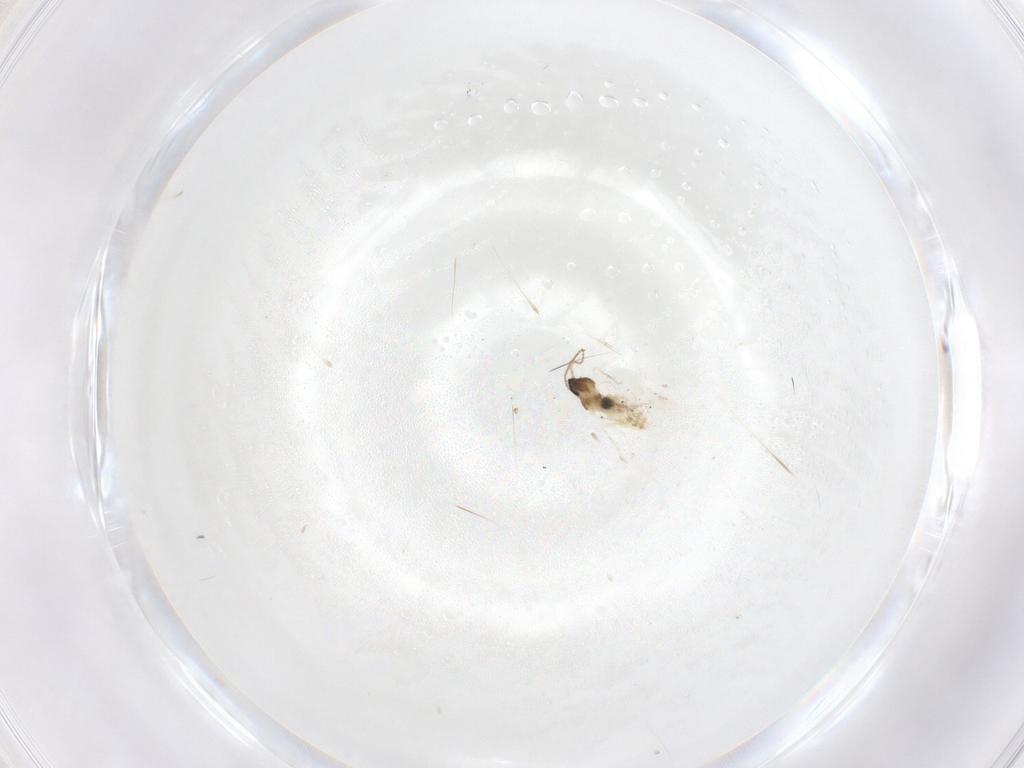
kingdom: Animalia
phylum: Arthropoda
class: Insecta
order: Diptera
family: Cecidomyiidae
